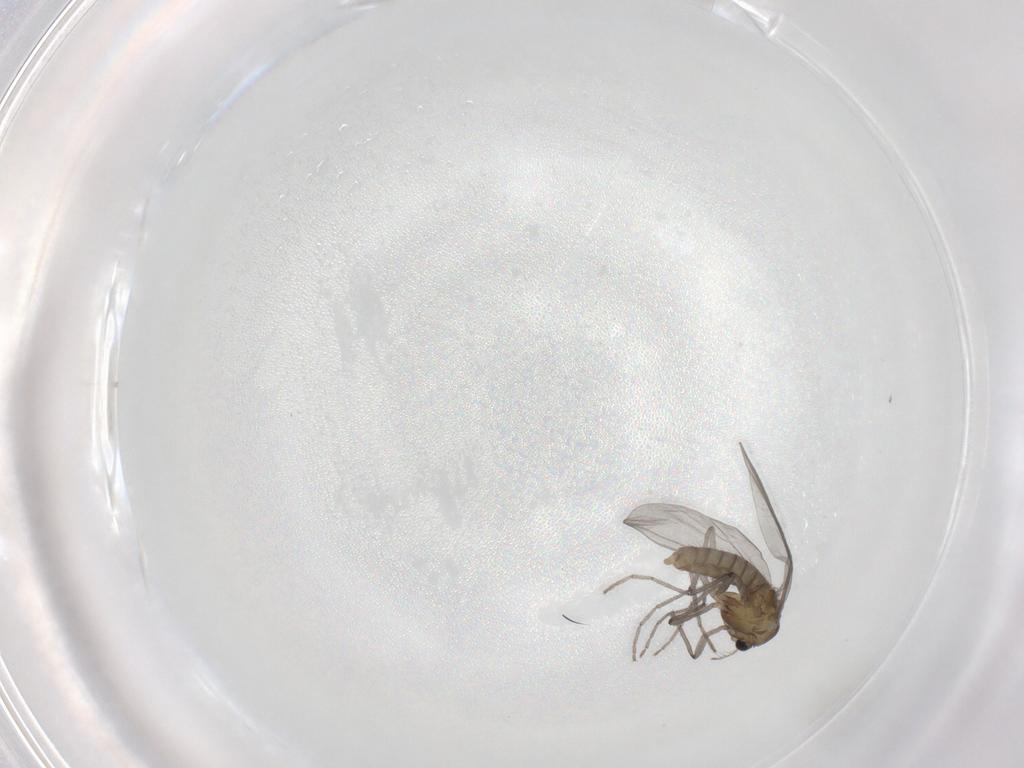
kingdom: Animalia
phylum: Arthropoda
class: Insecta
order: Diptera
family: Chironomidae
